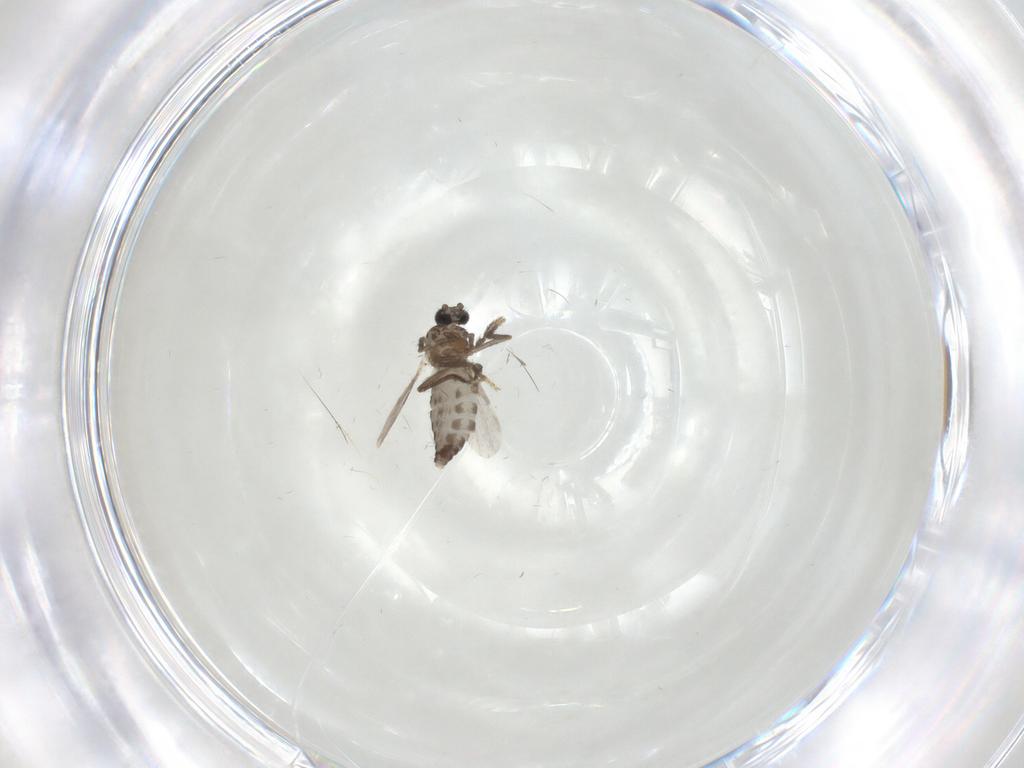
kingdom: Animalia
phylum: Arthropoda
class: Insecta
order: Diptera
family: Ceratopogonidae
